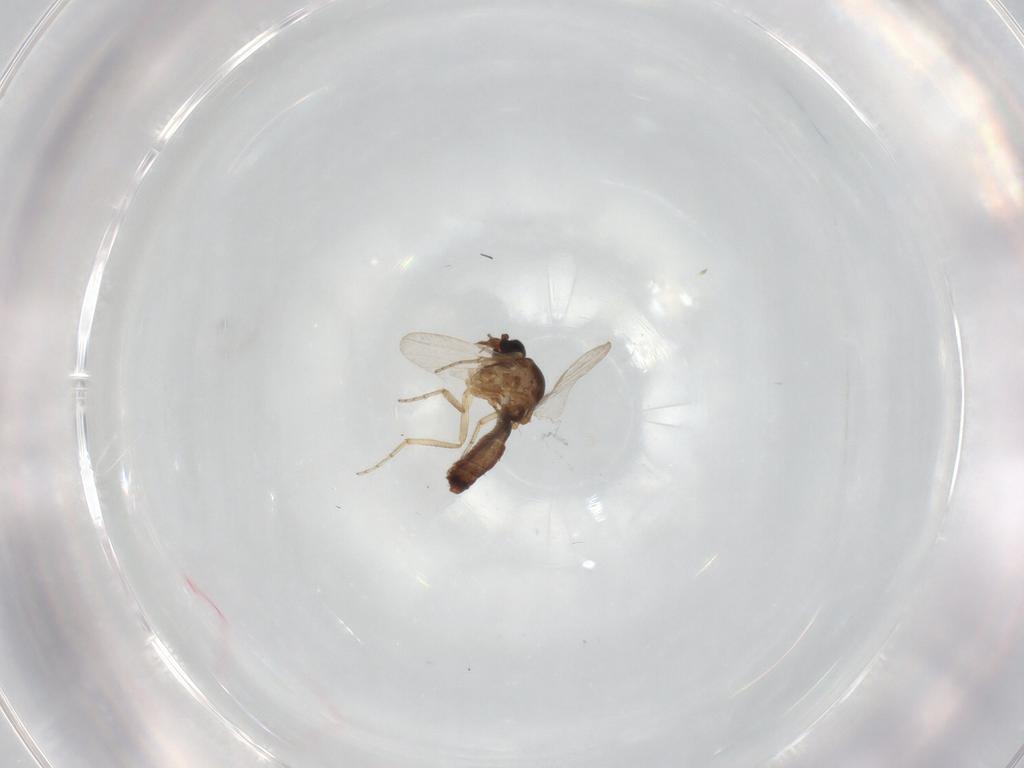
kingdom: Animalia
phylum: Arthropoda
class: Insecta
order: Diptera
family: Ceratopogonidae
